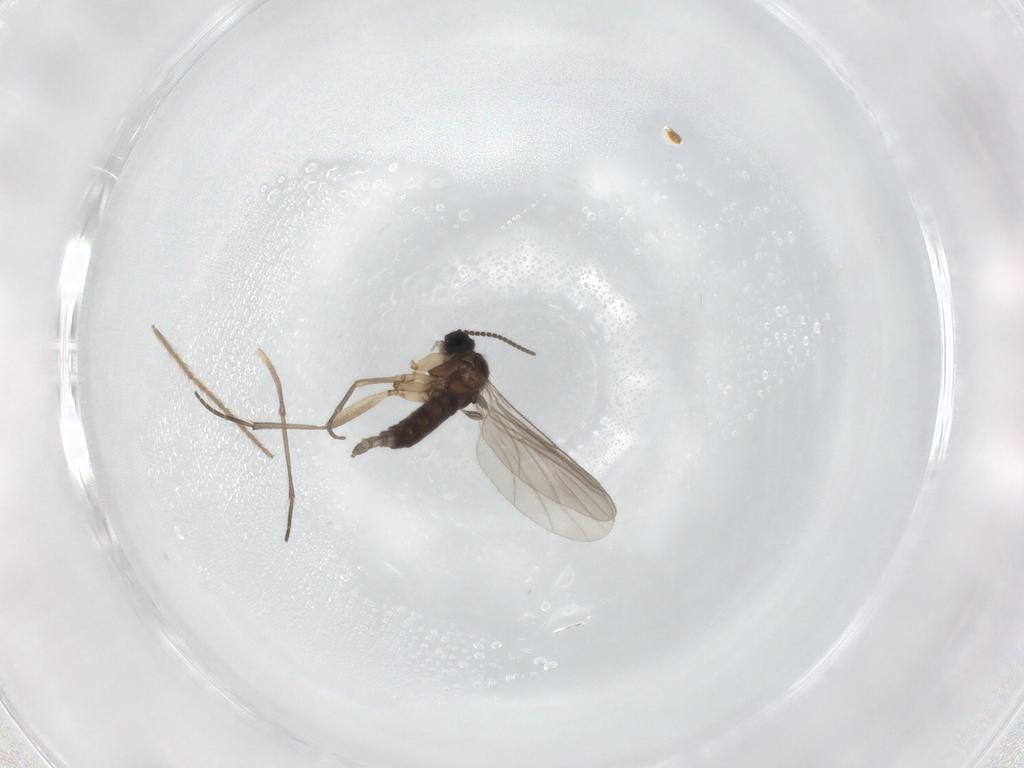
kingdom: Animalia
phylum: Arthropoda
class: Insecta
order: Diptera
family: Chironomidae
